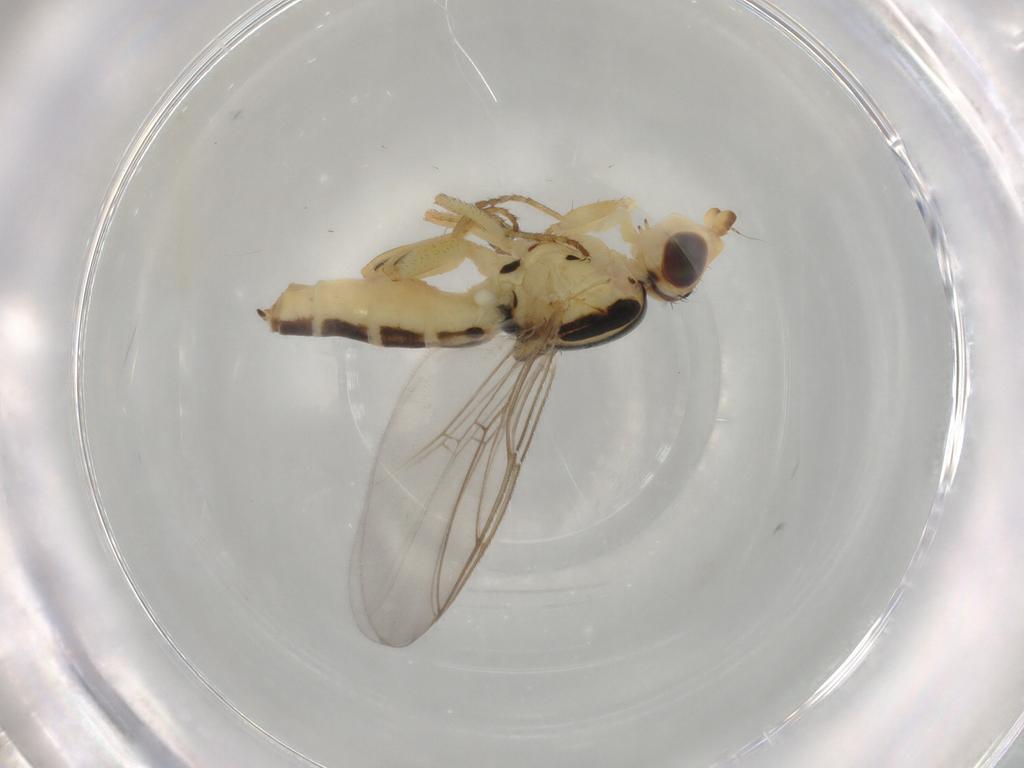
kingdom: Animalia
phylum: Arthropoda
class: Insecta
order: Diptera
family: Chloropidae
